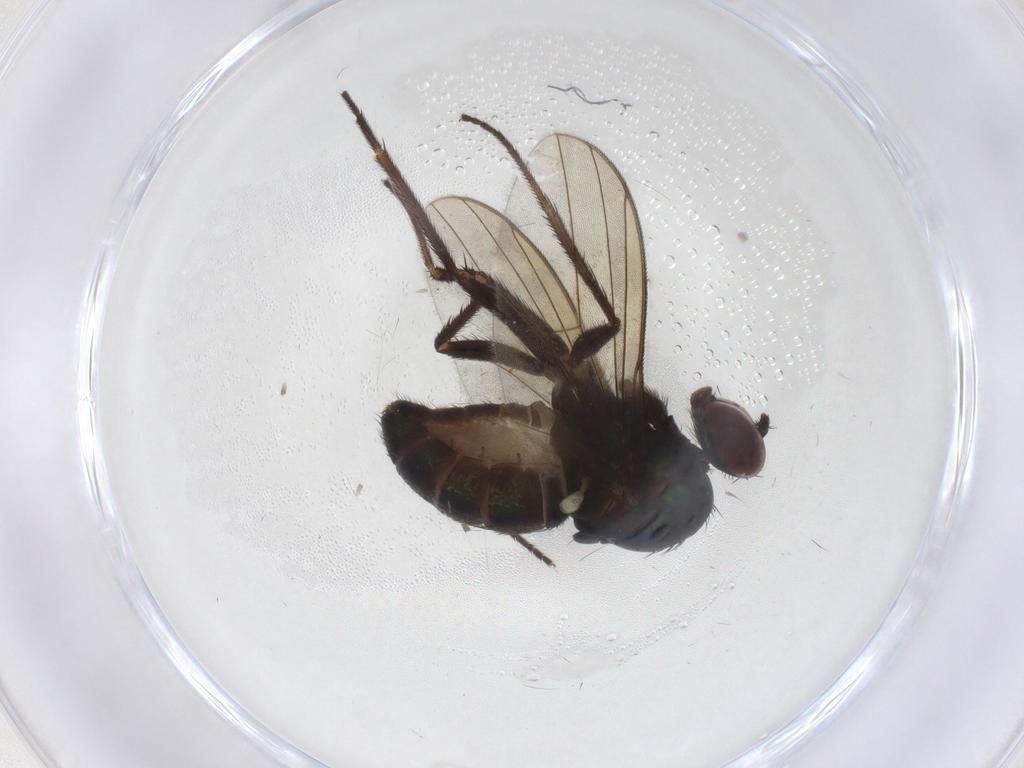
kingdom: Animalia
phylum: Arthropoda
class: Insecta
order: Diptera
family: Dolichopodidae
